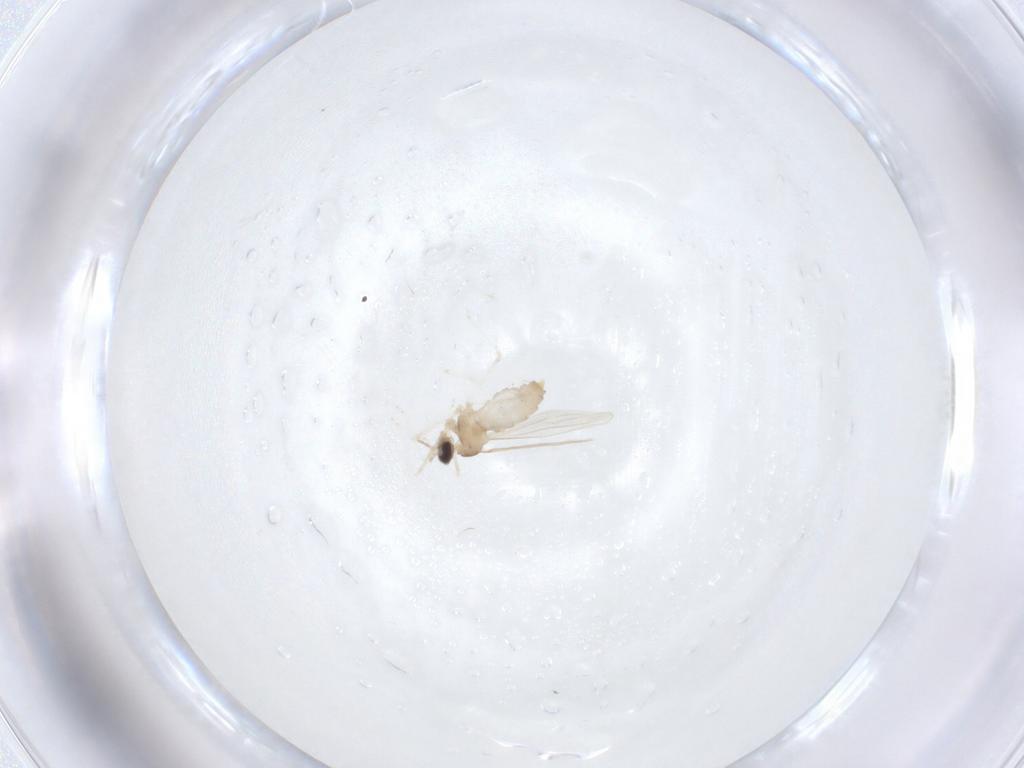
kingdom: Animalia
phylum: Arthropoda
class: Insecta
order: Diptera
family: Cecidomyiidae
